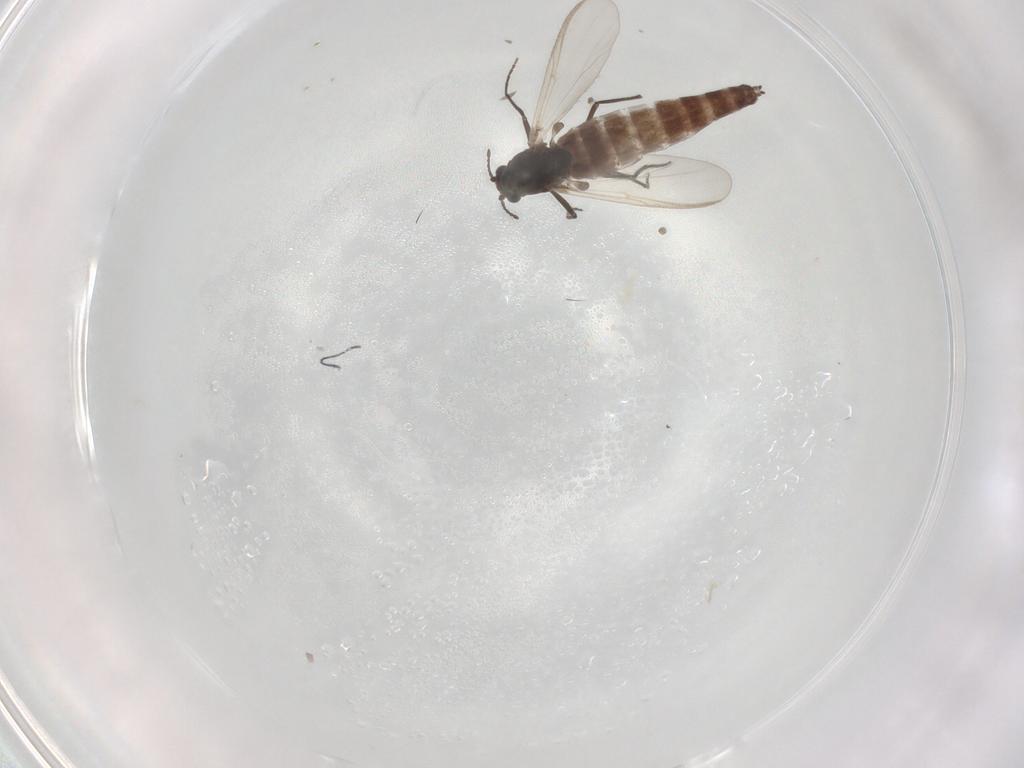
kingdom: Animalia
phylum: Arthropoda
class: Insecta
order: Diptera
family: Chironomidae
